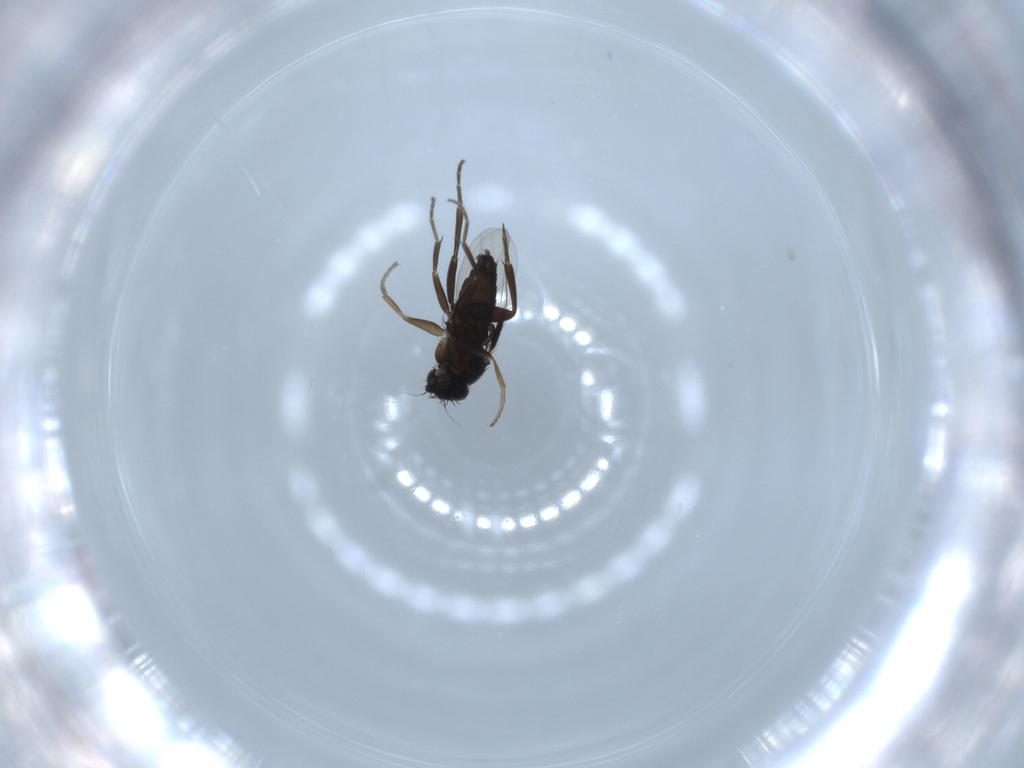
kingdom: Animalia
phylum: Arthropoda
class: Insecta
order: Diptera
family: Phoridae
